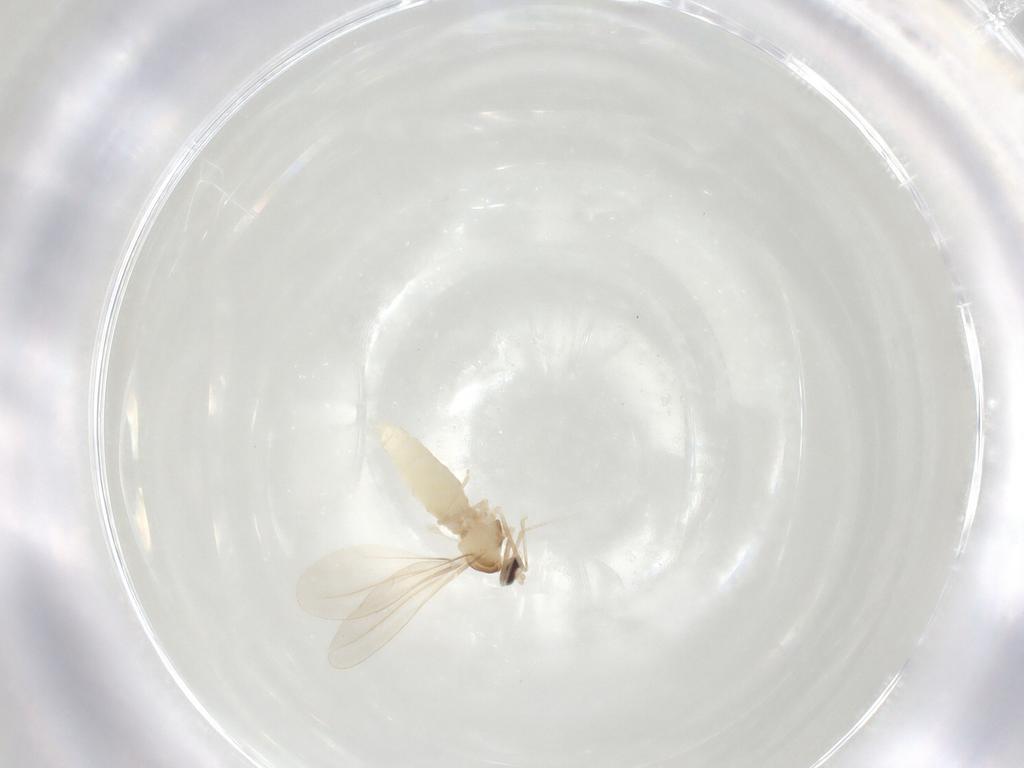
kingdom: Animalia
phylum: Arthropoda
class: Insecta
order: Diptera
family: Cecidomyiidae
